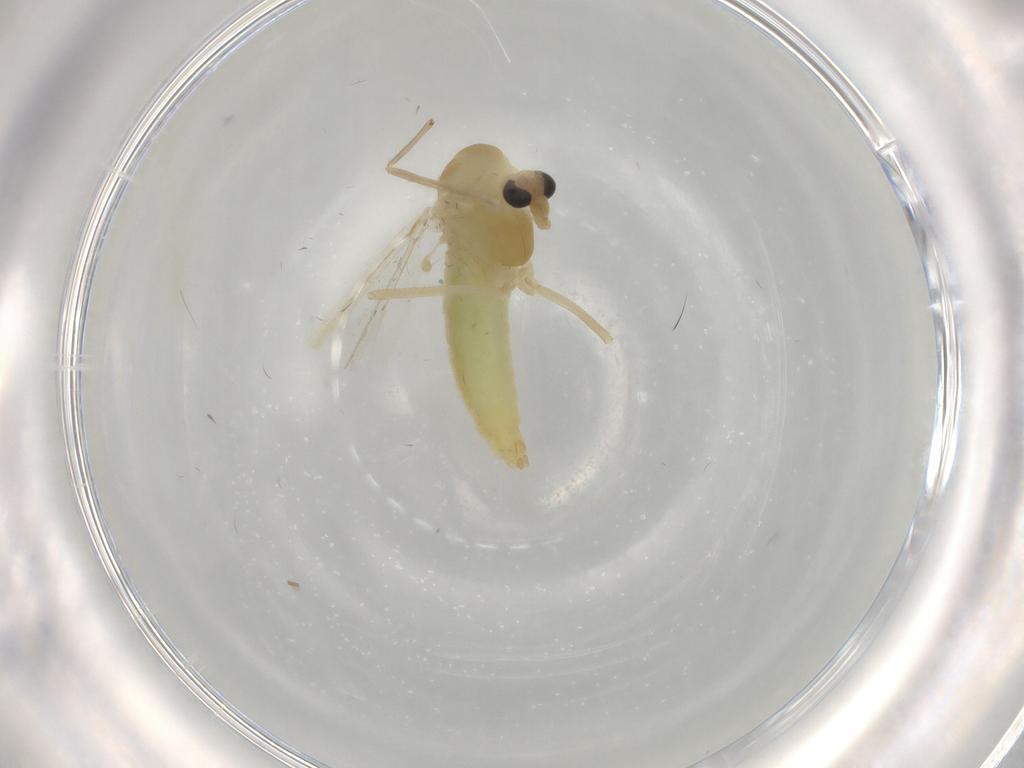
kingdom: Animalia
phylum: Arthropoda
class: Insecta
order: Diptera
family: Chironomidae
